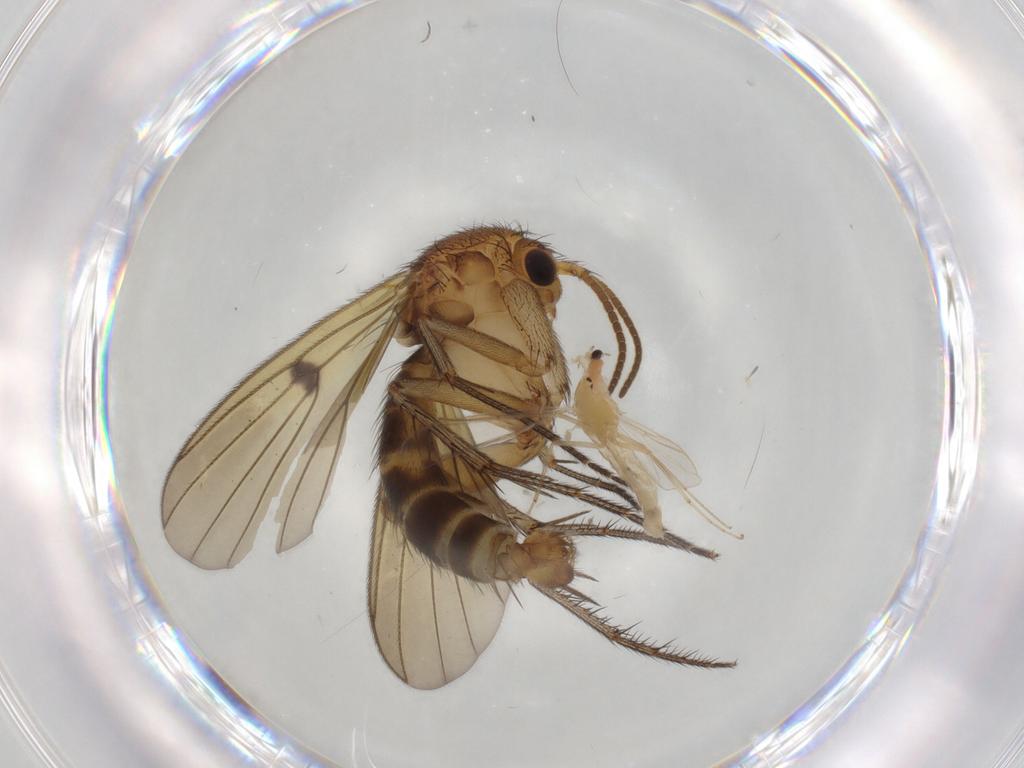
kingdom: Animalia
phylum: Arthropoda
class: Insecta
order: Diptera
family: Chironomidae
